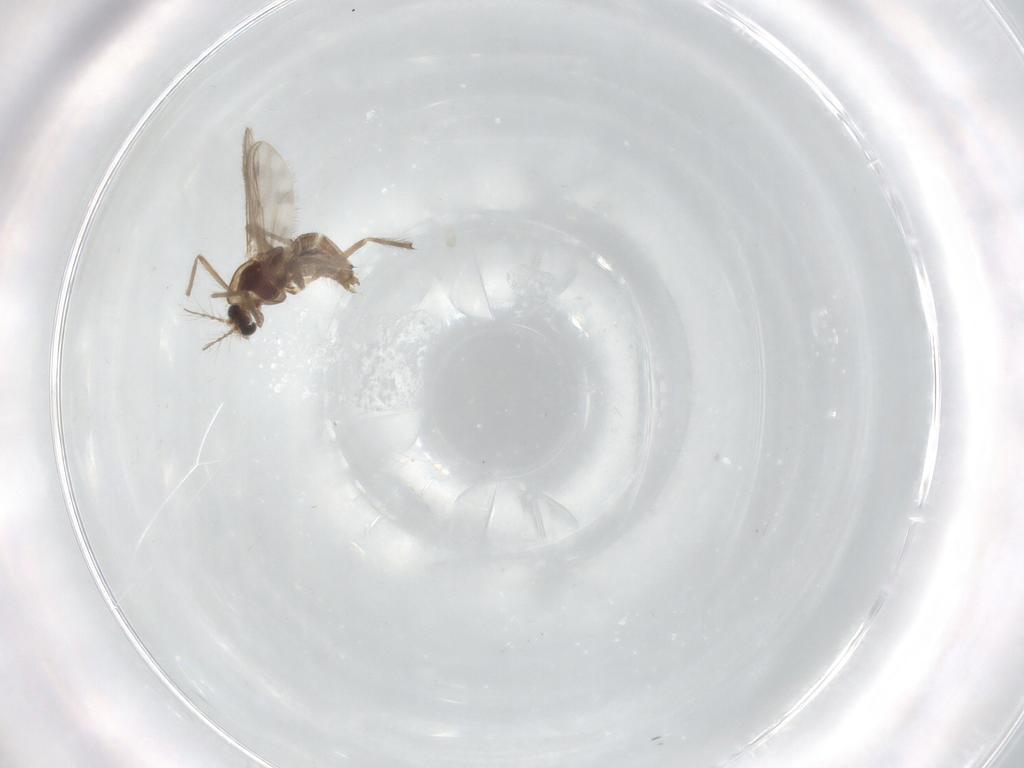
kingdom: Animalia
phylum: Arthropoda
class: Insecta
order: Diptera
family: Chironomidae
